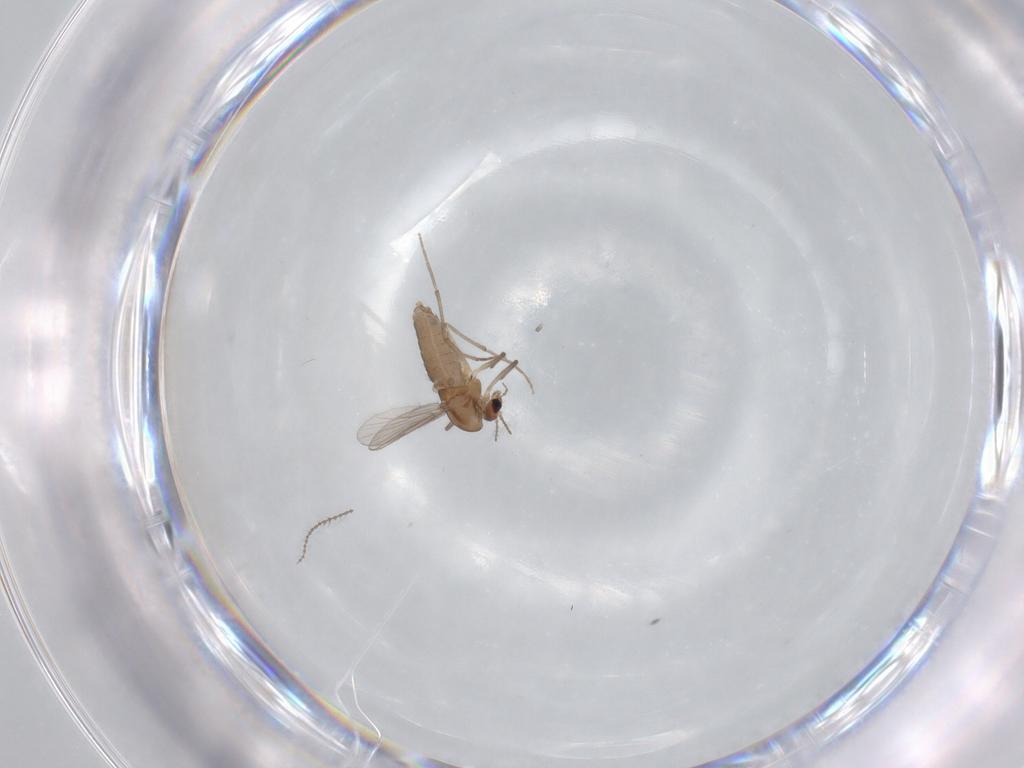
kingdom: Animalia
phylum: Arthropoda
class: Insecta
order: Diptera
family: Chironomidae
